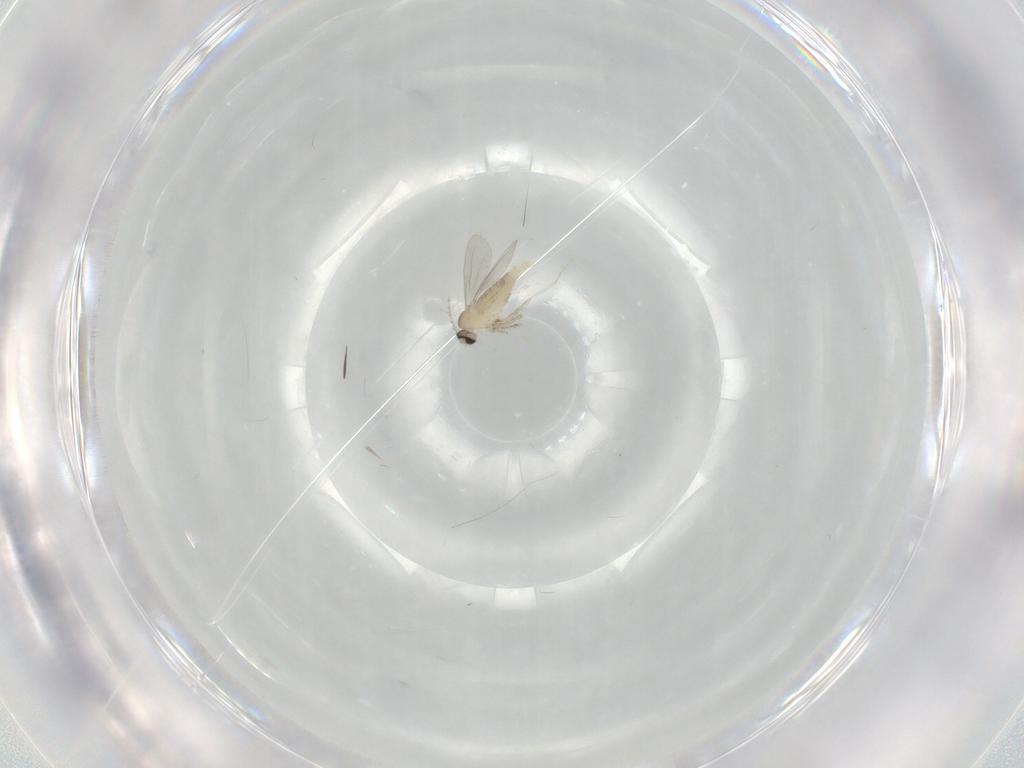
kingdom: Animalia
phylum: Arthropoda
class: Insecta
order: Diptera
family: Cecidomyiidae
